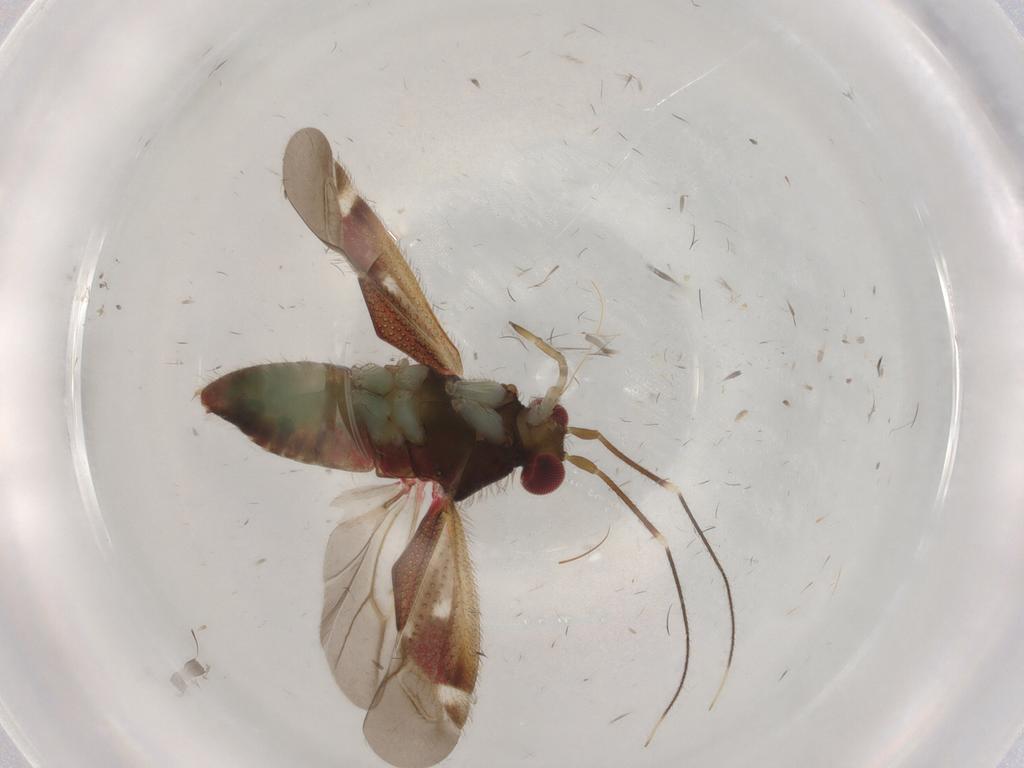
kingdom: Animalia
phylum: Arthropoda
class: Insecta
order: Hemiptera
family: Miridae
